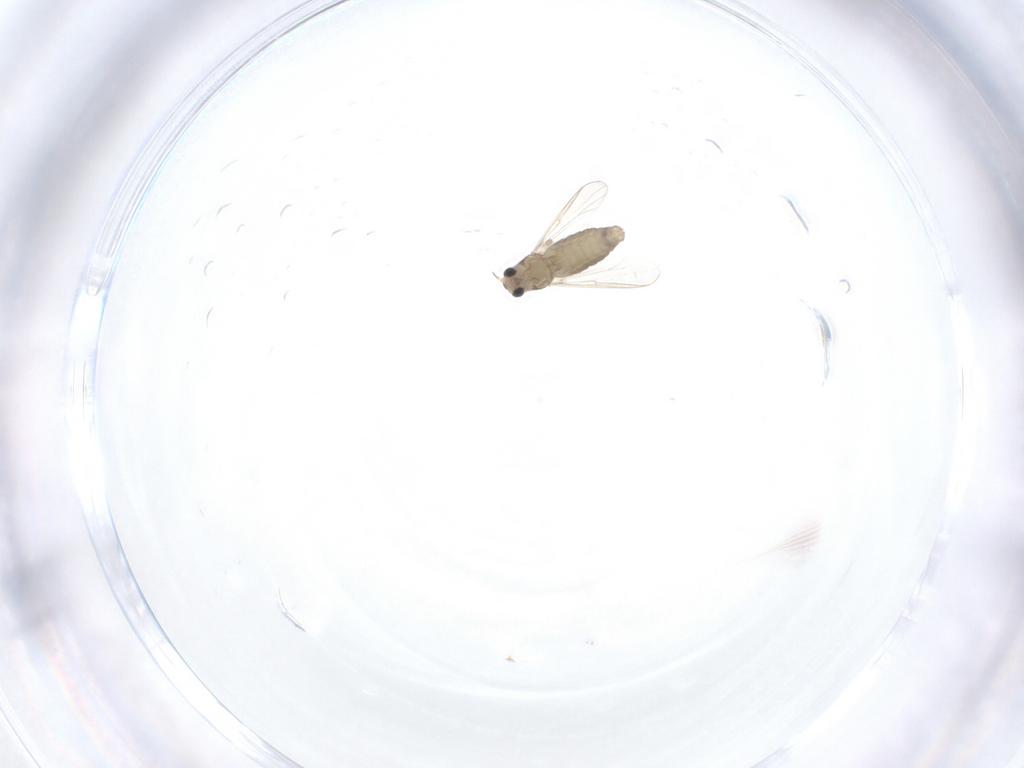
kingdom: Animalia
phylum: Arthropoda
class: Insecta
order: Diptera
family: Chironomidae
